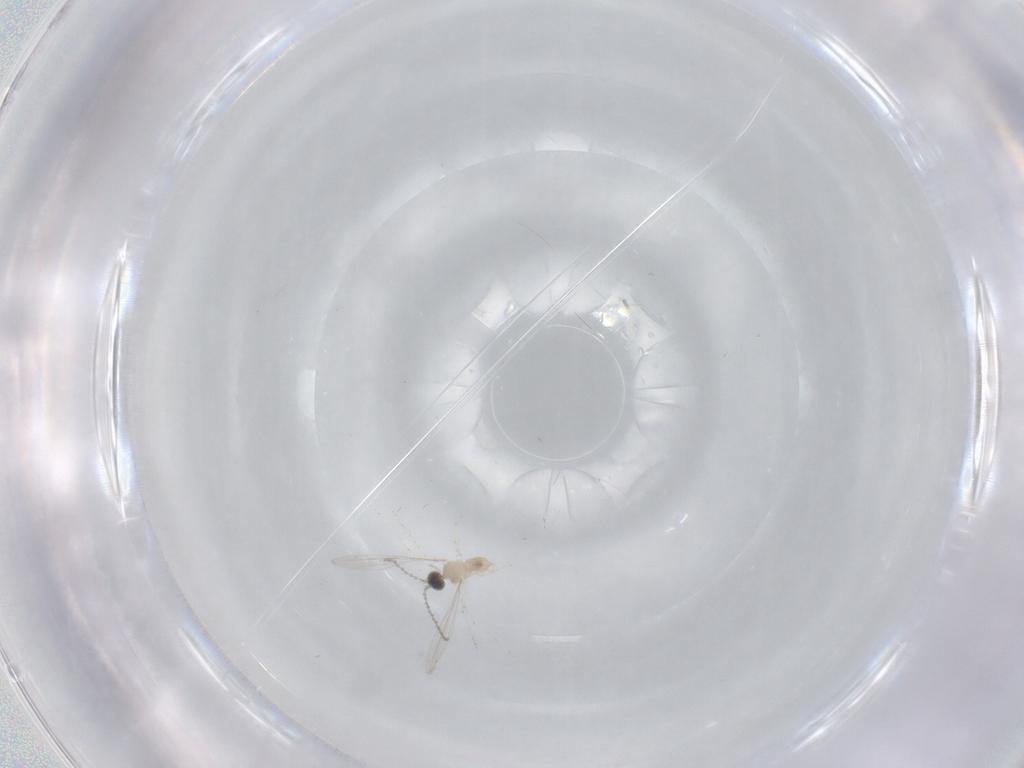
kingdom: Animalia
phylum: Arthropoda
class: Insecta
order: Diptera
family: Cecidomyiidae
